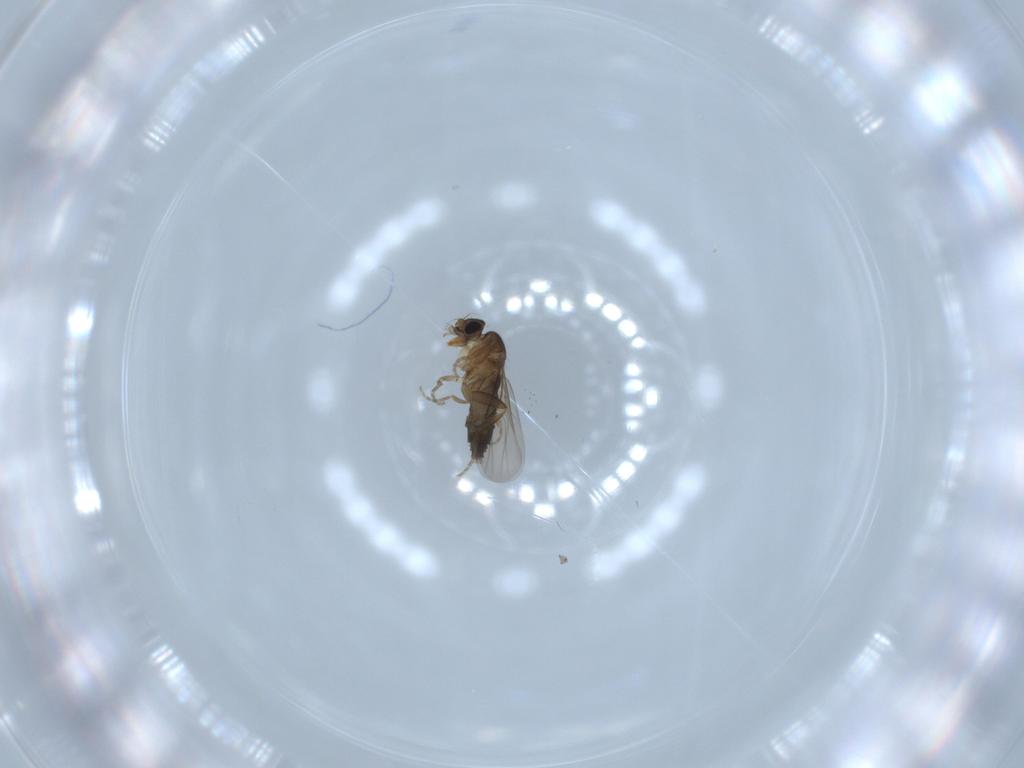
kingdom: Animalia
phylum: Arthropoda
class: Insecta
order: Diptera
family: Phoridae
